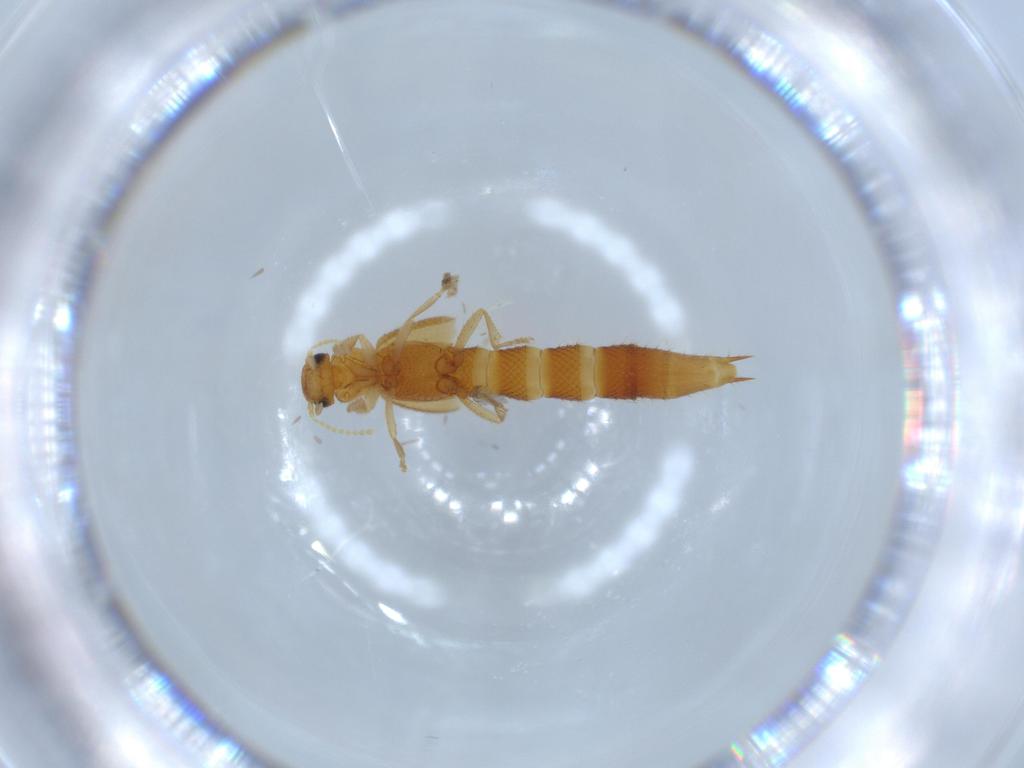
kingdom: Animalia
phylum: Arthropoda
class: Insecta
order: Coleoptera
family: Staphylinidae
